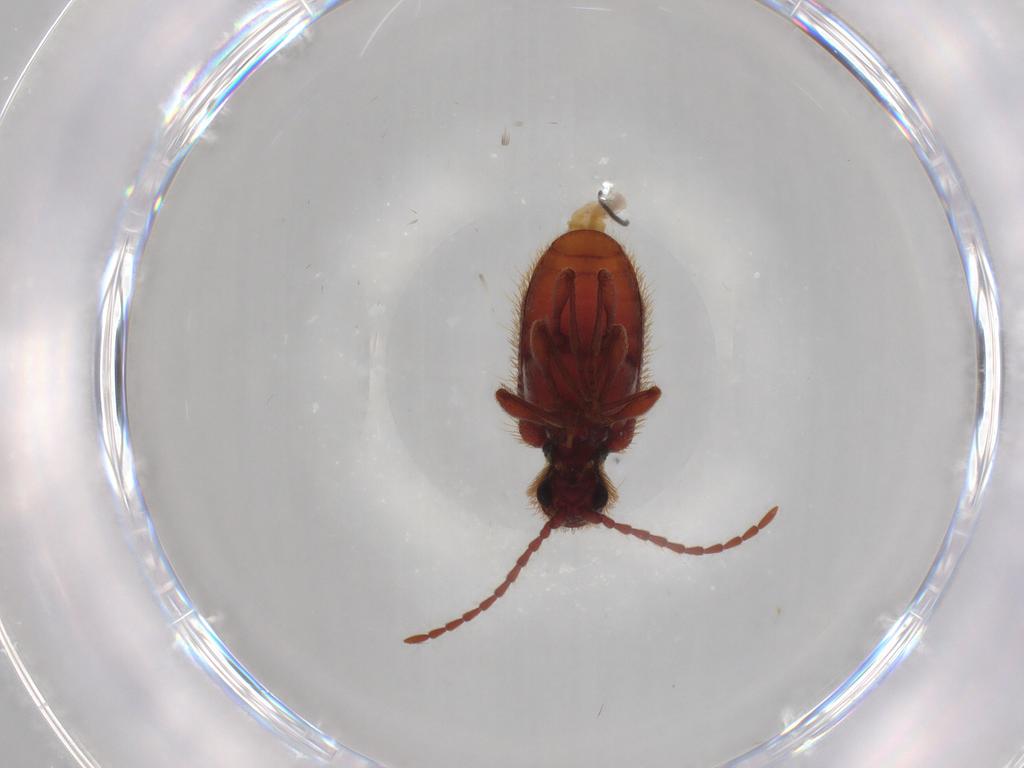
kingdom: Animalia
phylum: Arthropoda
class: Insecta
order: Coleoptera
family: Ptinidae
